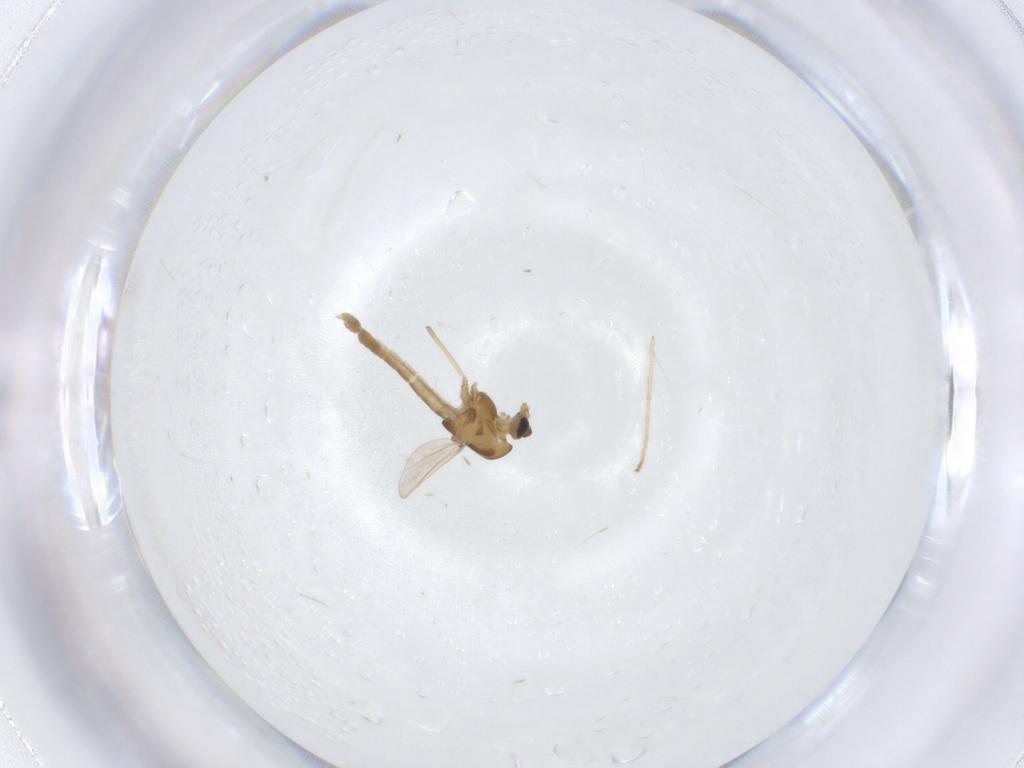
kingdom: Animalia
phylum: Arthropoda
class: Insecta
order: Diptera
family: Chironomidae
